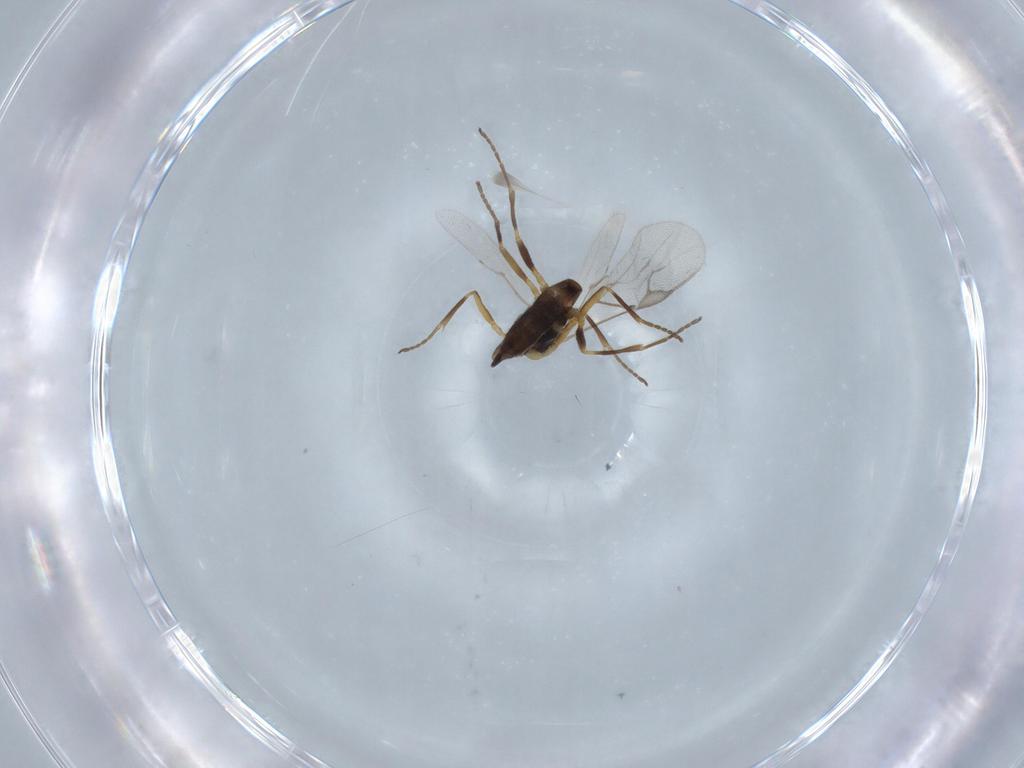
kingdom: Animalia
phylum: Arthropoda
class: Insecta
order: Hymenoptera
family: Braconidae
